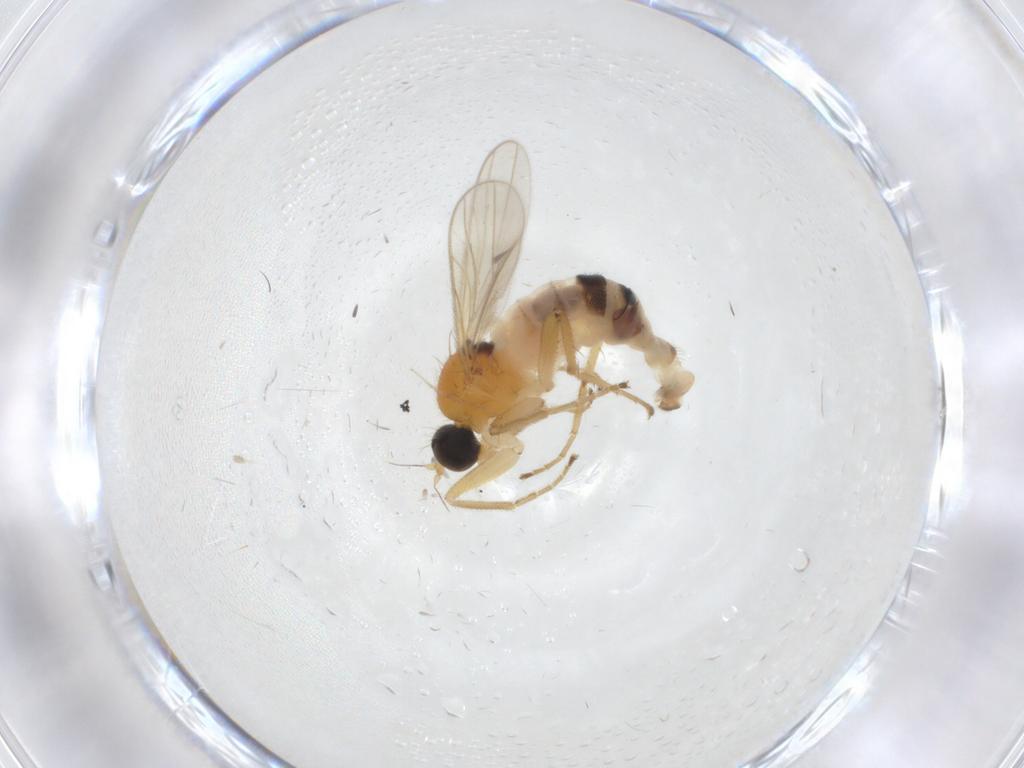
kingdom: Animalia
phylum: Arthropoda
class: Insecta
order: Diptera
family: Hybotidae
